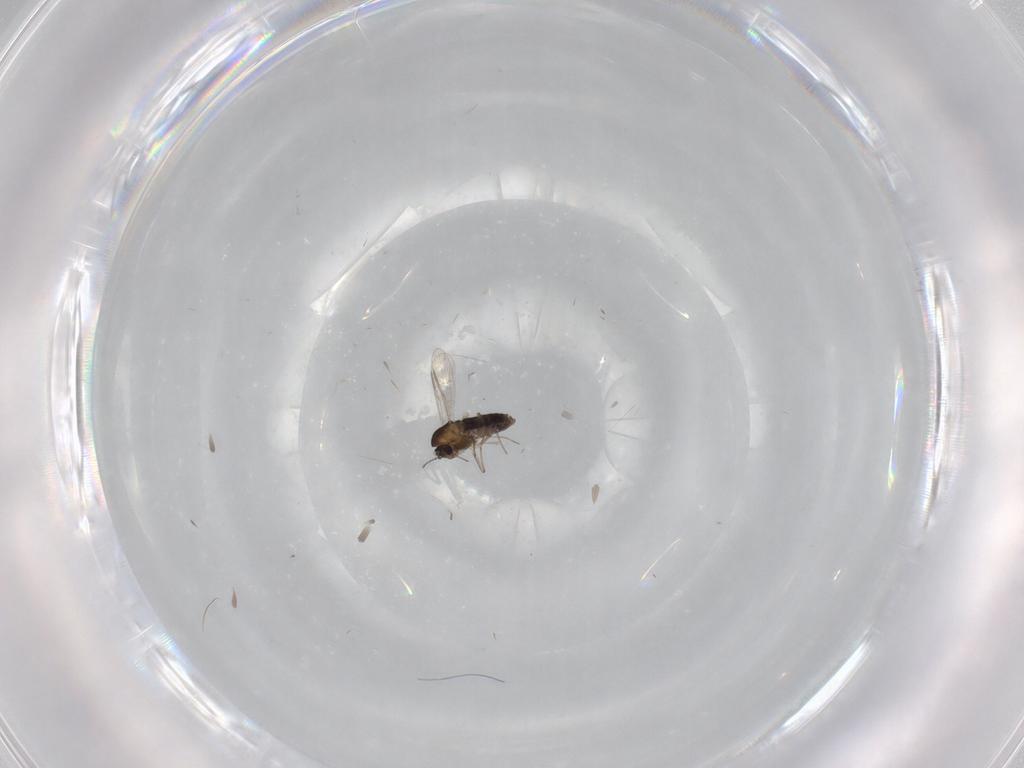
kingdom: Animalia
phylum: Arthropoda
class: Insecta
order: Diptera
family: Chironomidae
